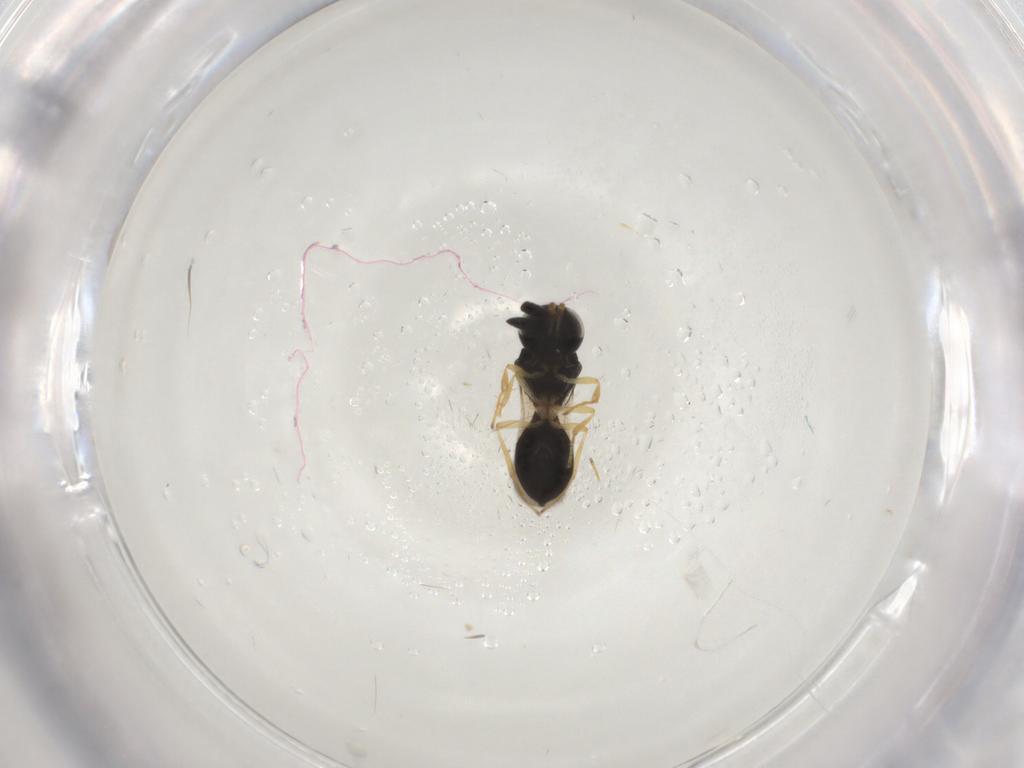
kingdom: Animalia
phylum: Arthropoda
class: Insecta
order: Hymenoptera
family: Scelionidae
